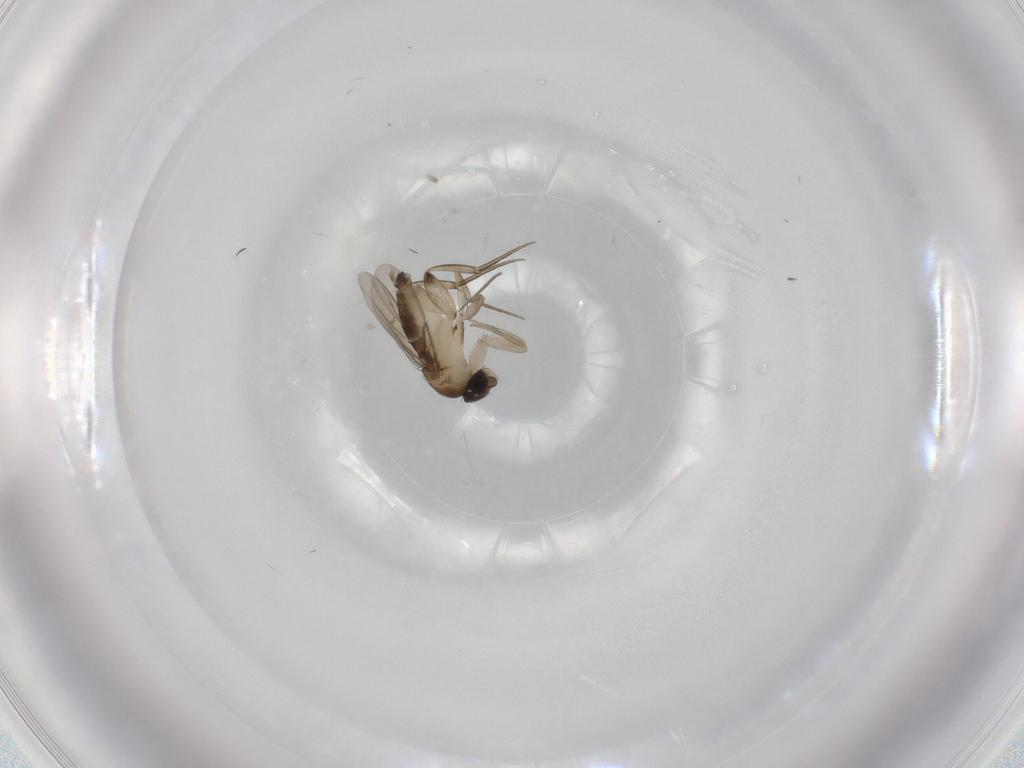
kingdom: Animalia
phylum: Arthropoda
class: Insecta
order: Diptera
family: Phoridae
